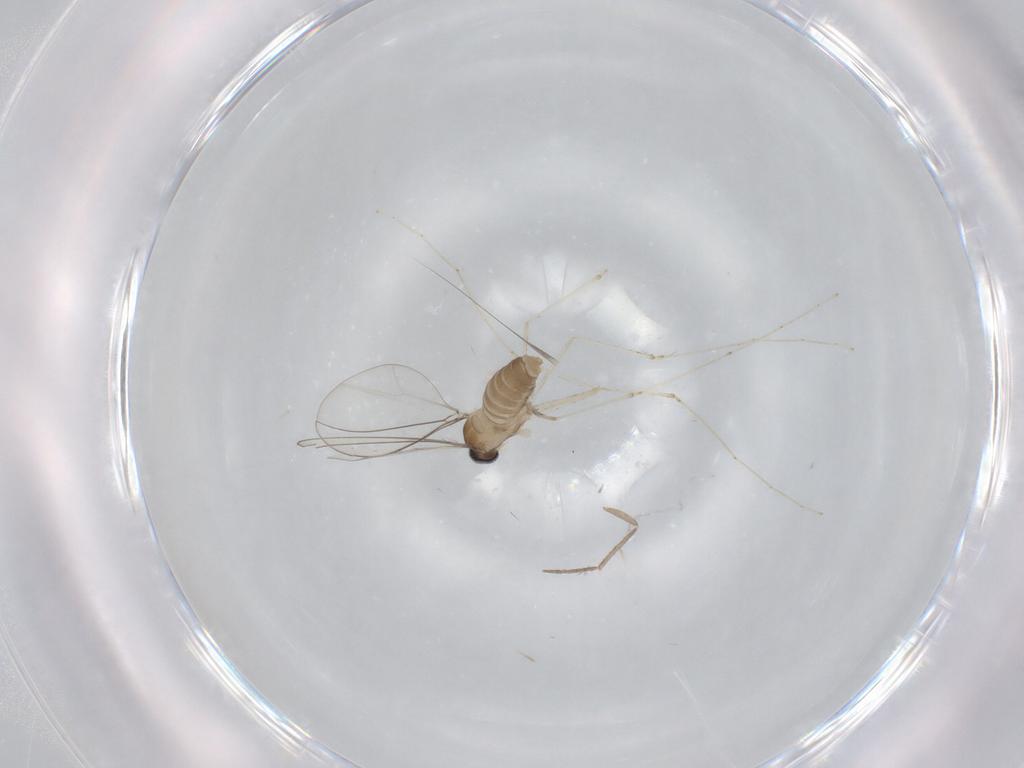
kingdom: Animalia
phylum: Arthropoda
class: Insecta
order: Diptera
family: Cecidomyiidae
